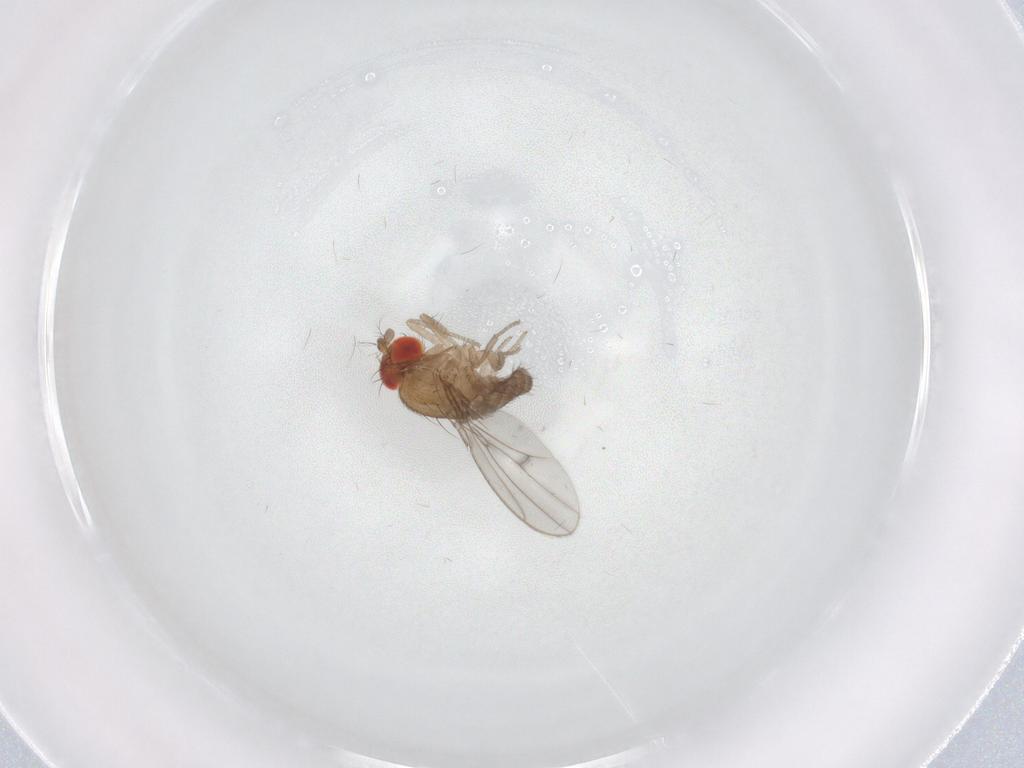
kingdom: Animalia
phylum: Arthropoda
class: Insecta
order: Diptera
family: Drosophilidae
